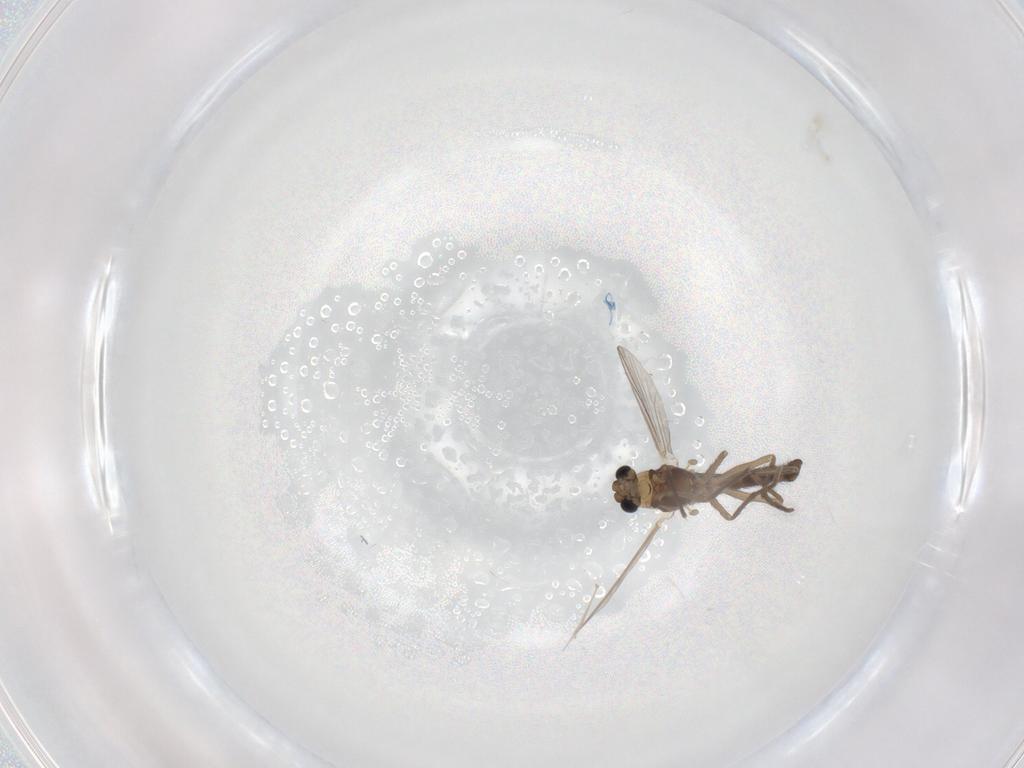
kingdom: Animalia
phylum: Arthropoda
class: Insecta
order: Diptera
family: Chironomidae
